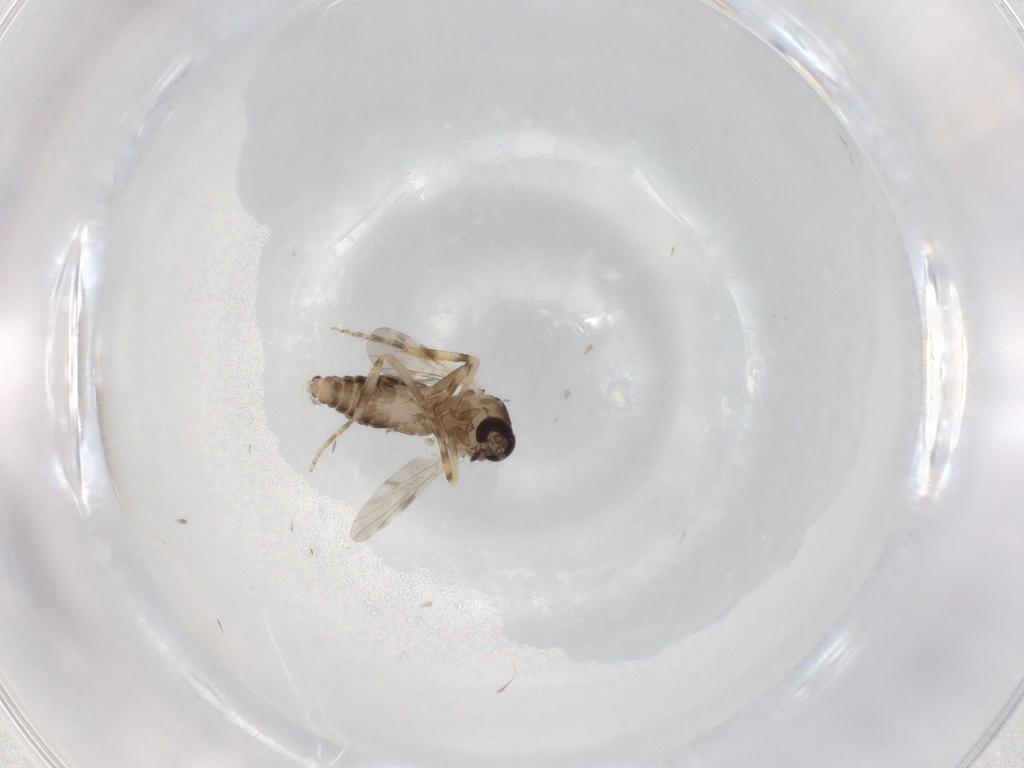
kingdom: Animalia
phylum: Arthropoda
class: Insecta
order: Diptera
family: Ceratopogonidae
